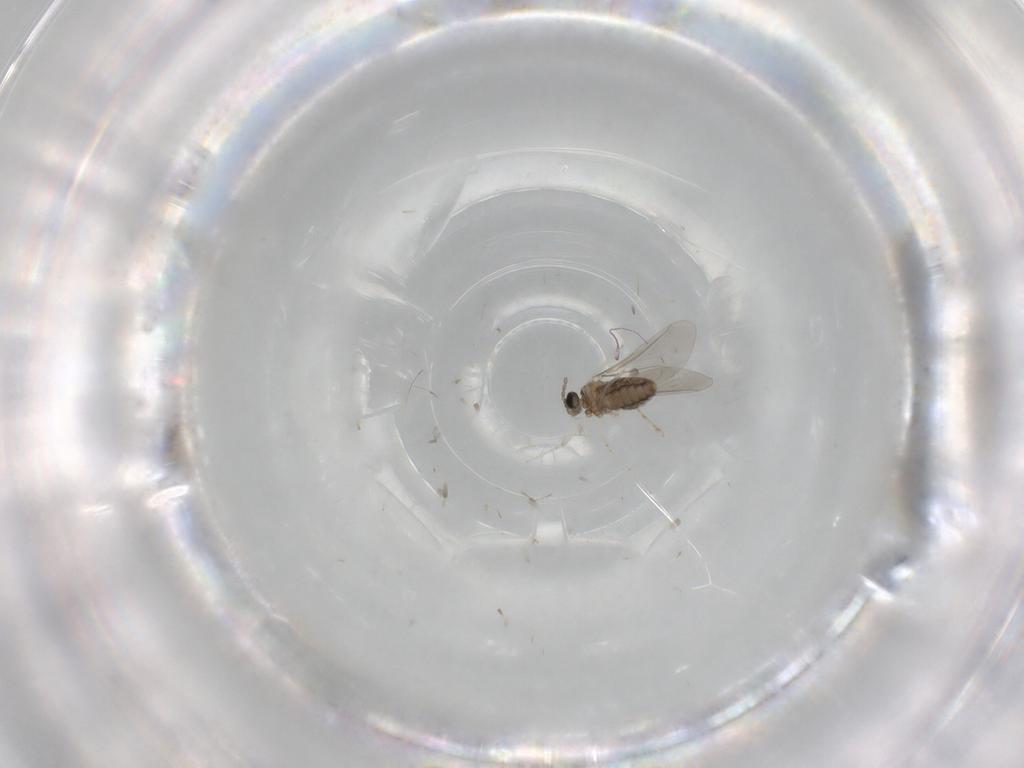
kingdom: Animalia
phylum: Arthropoda
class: Insecta
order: Diptera
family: Cecidomyiidae
